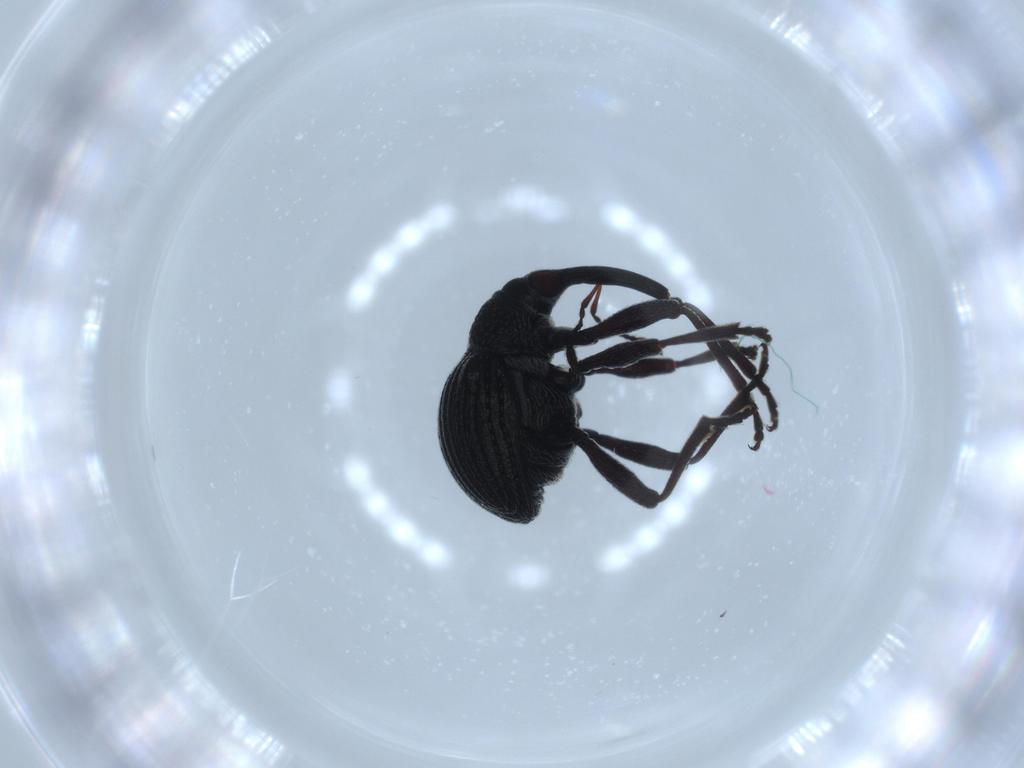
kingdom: Animalia
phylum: Arthropoda
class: Insecta
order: Coleoptera
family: Brentidae
